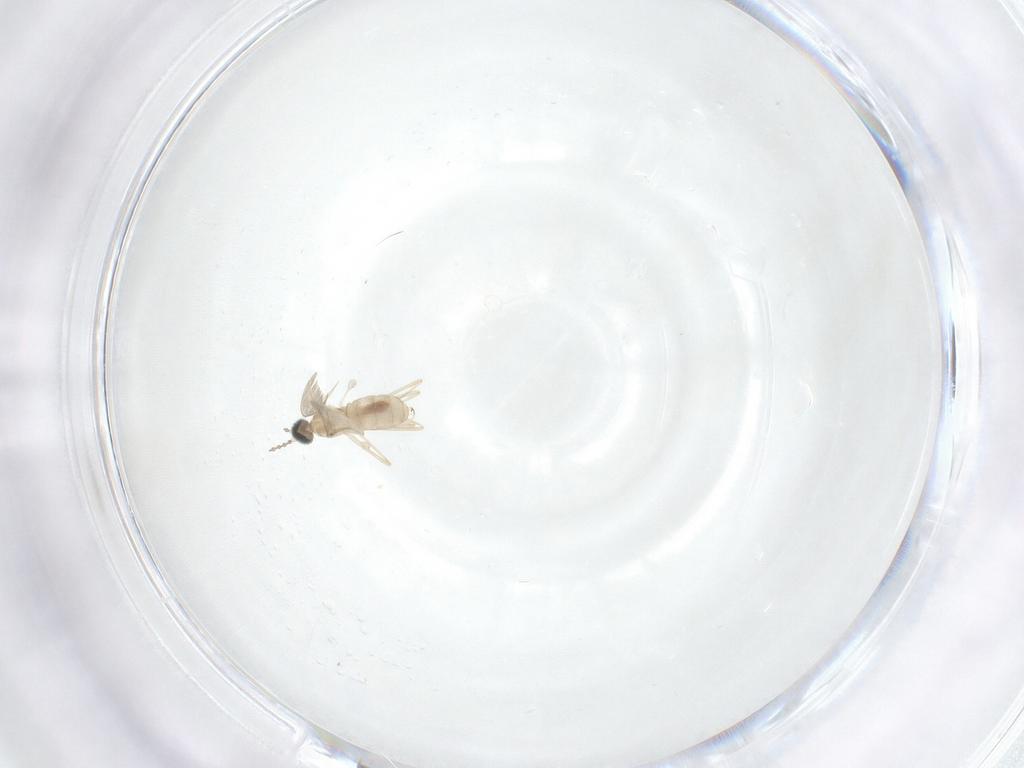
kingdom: Animalia
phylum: Arthropoda
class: Insecta
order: Diptera
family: Cecidomyiidae
